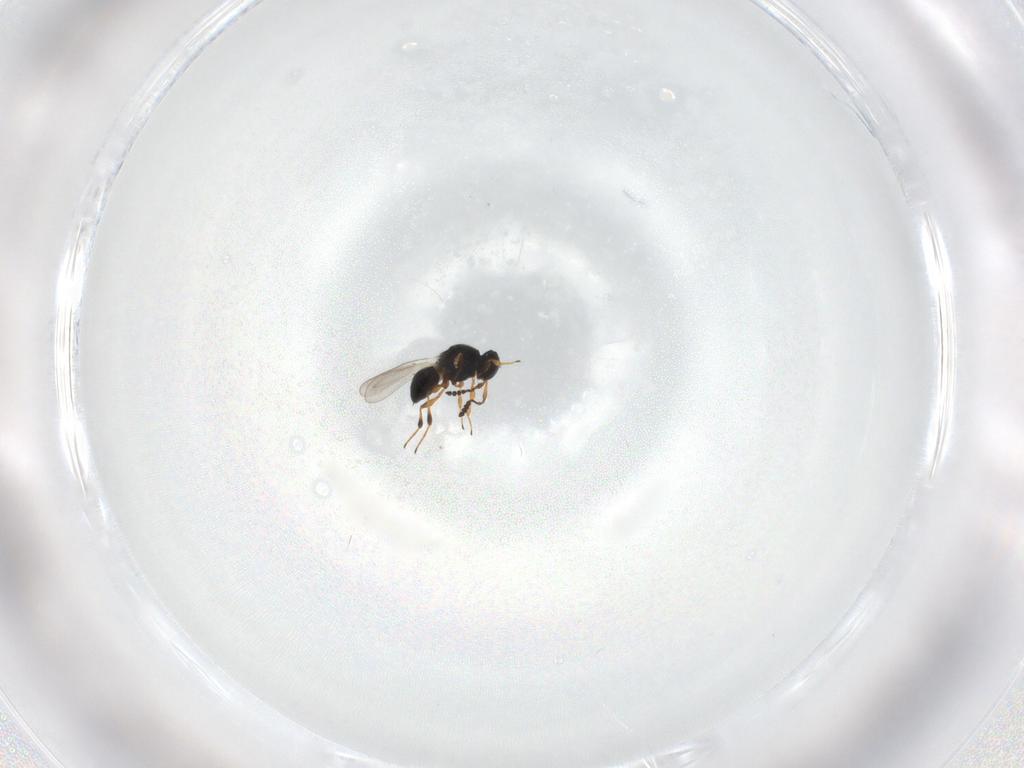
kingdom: Animalia
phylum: Arthropoda
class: Insecta
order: Hymenoptera
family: Platygastridae
